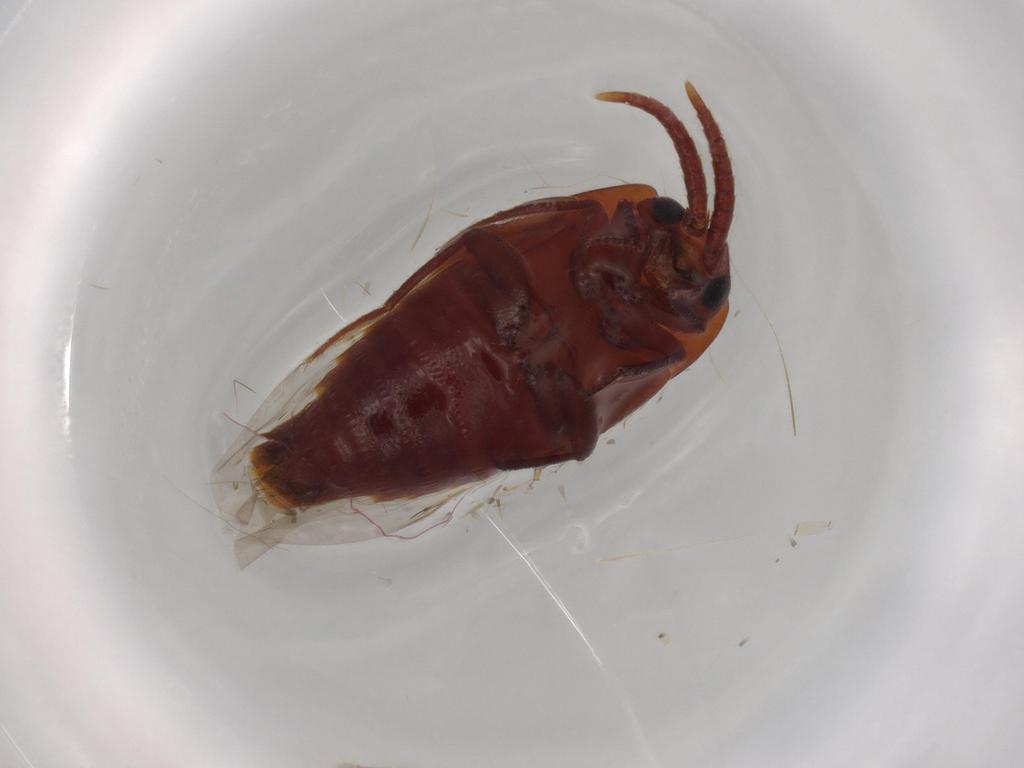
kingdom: Animalia
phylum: Arthropoda
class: Insecta
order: Coleoptera
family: Staphylinidae
